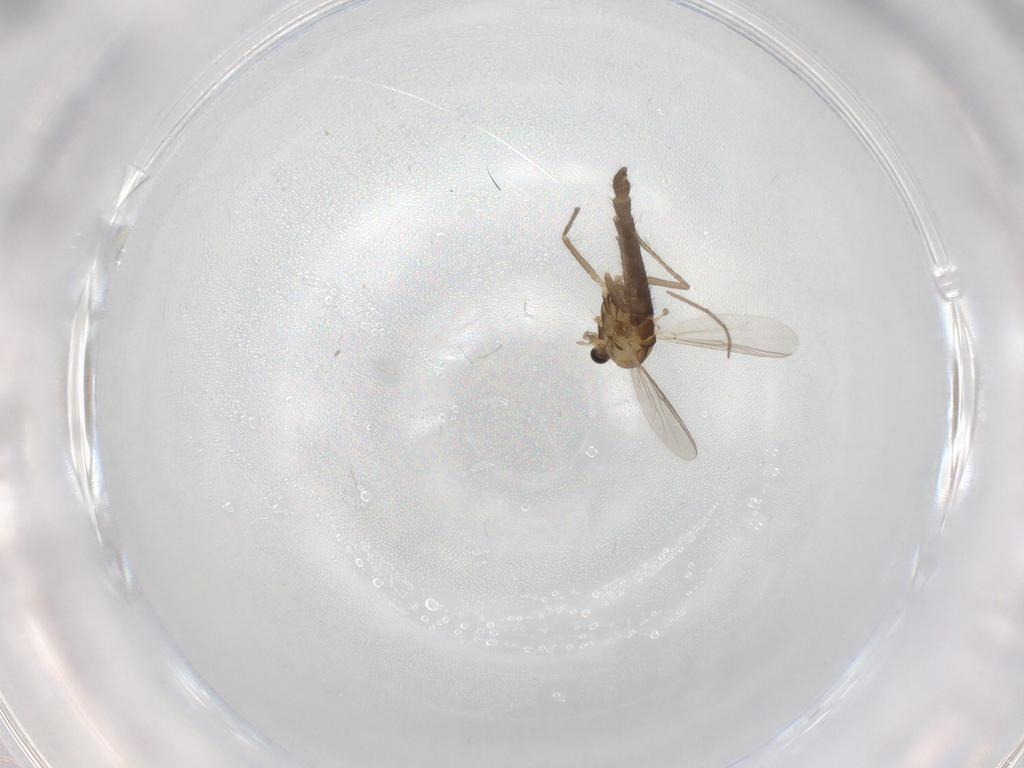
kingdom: Animalia
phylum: Arthropoda
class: Insecta
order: Diptera
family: Chironomidae
